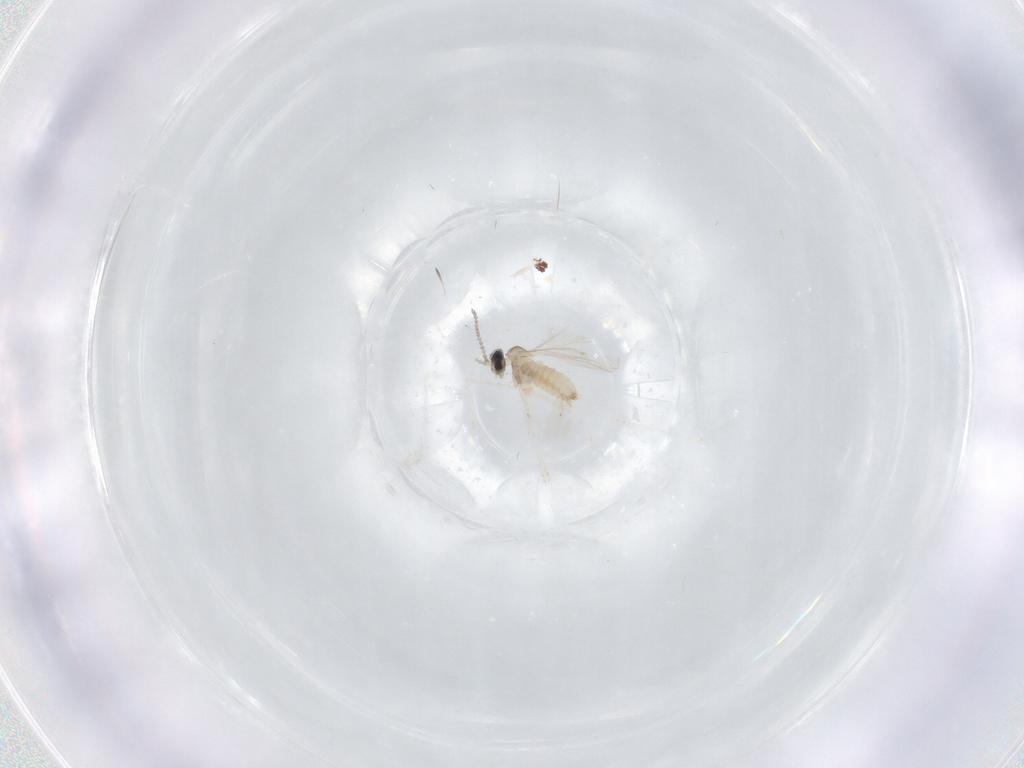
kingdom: Animalia
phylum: Arthropoda
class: Insecta
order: Diptera
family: Cecidomyiidae
